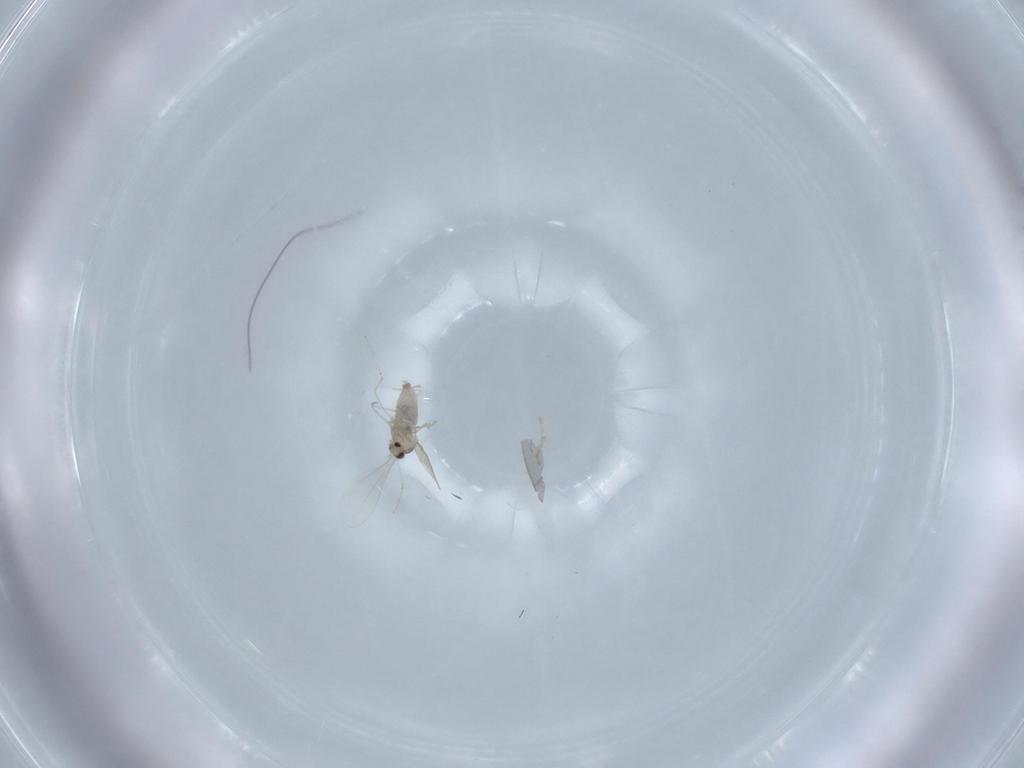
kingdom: Animalia
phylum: Arthropoda
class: Insecta
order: Diptera
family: Cecidomyiidae
